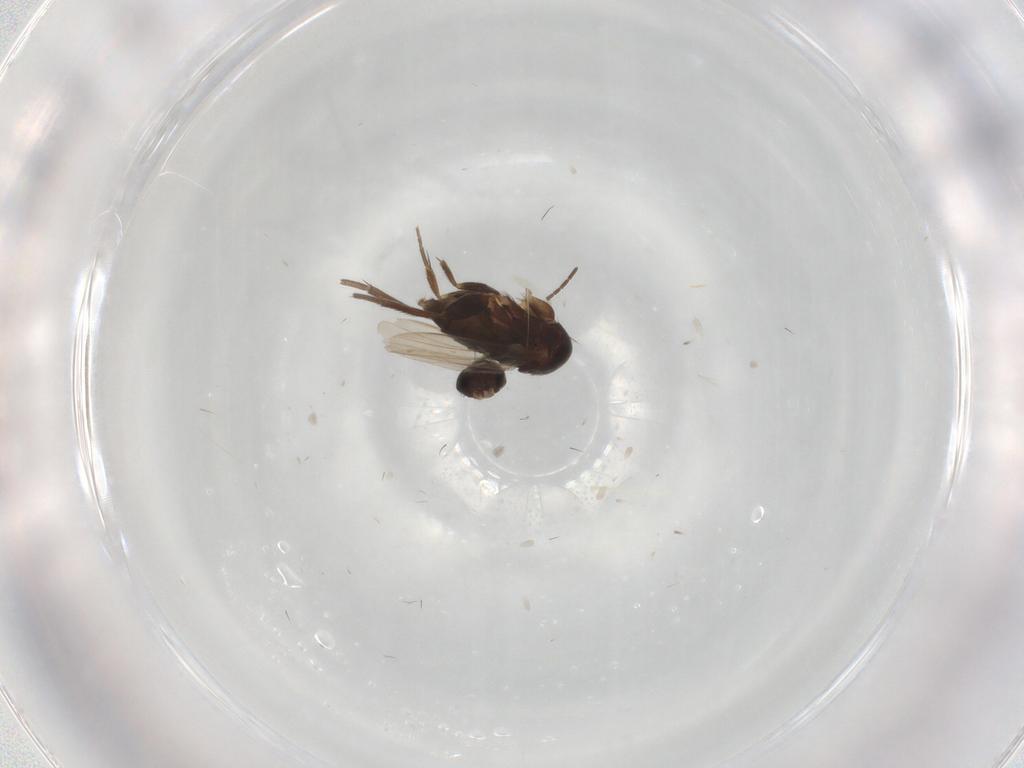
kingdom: Animalia
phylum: Arthropoda
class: Insecta
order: Diptera
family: Phoridae
